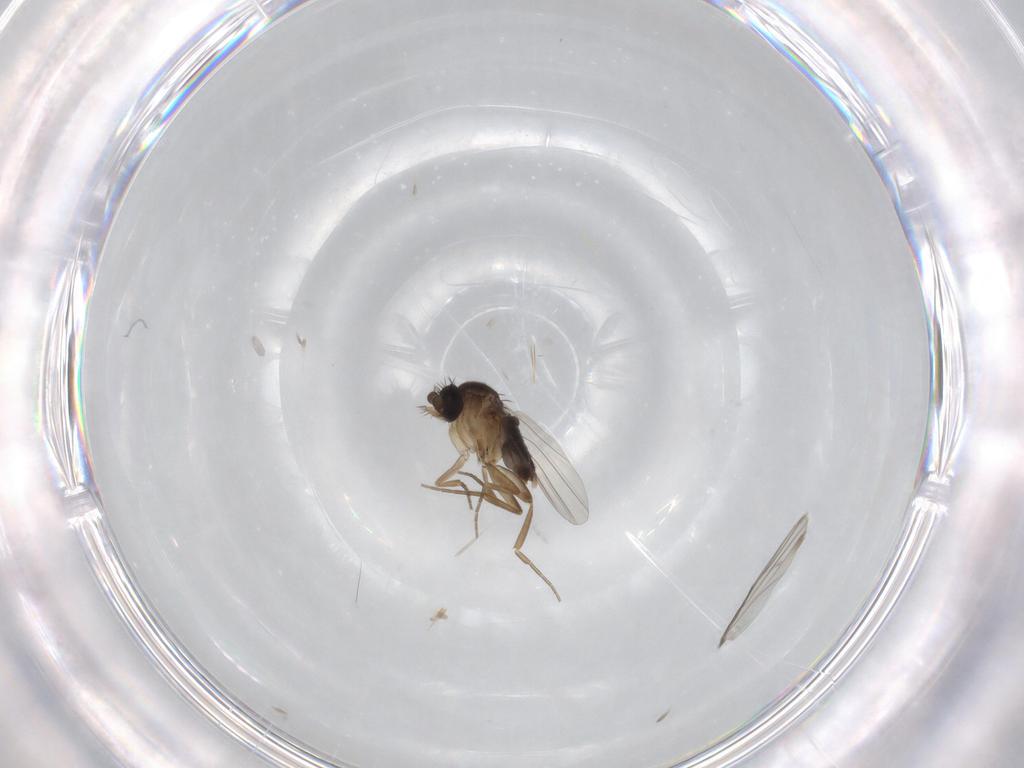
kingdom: Animalia
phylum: Arthropoda
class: Insecta
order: Diptera
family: Phoridae
